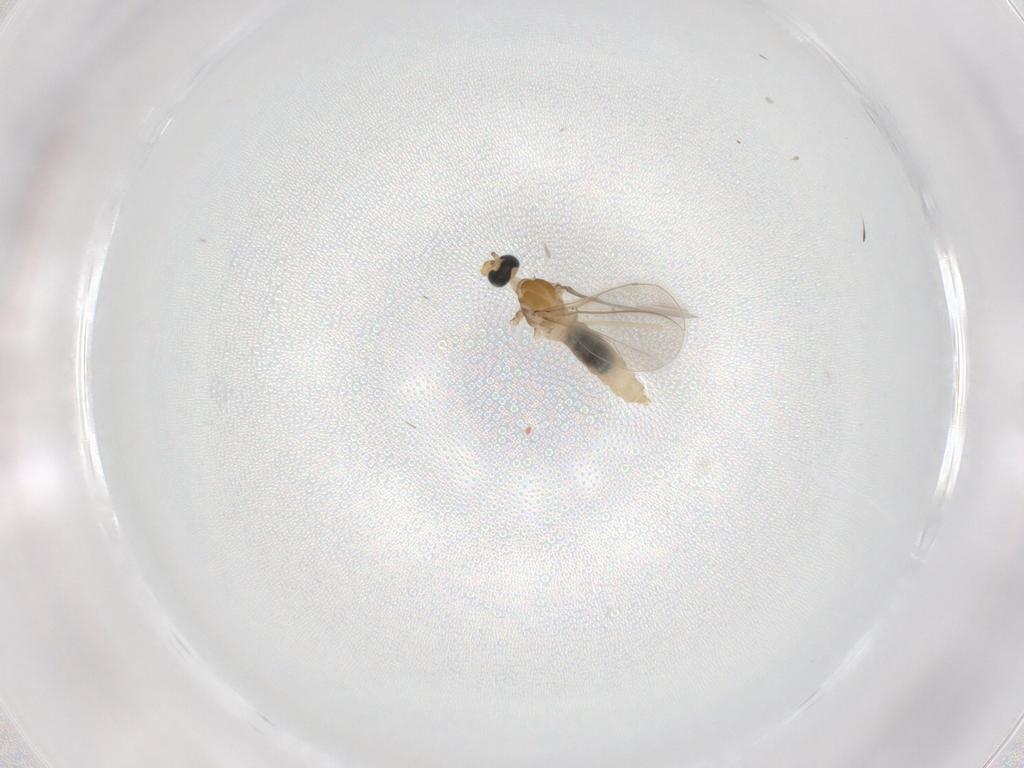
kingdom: Animalia
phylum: Arthropoda
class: Insecta
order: Diptera
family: Cecidomyiidae
